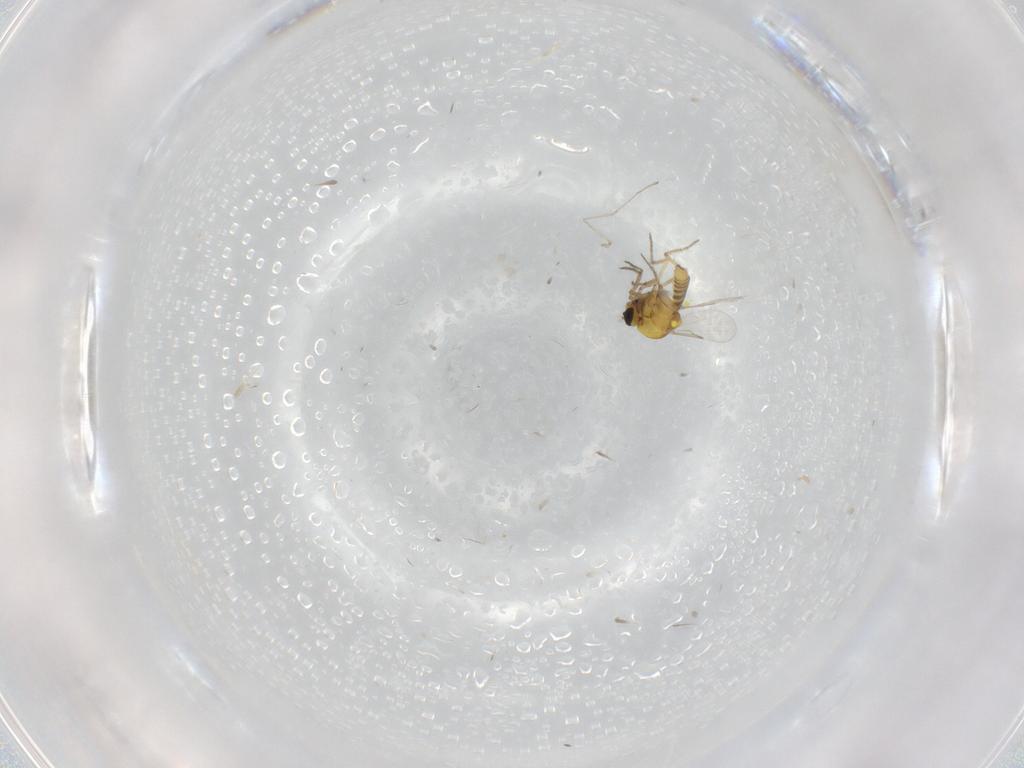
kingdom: Animalia
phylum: Arthropoda
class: Insecta
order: Diptera
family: Cecidomyiidae
